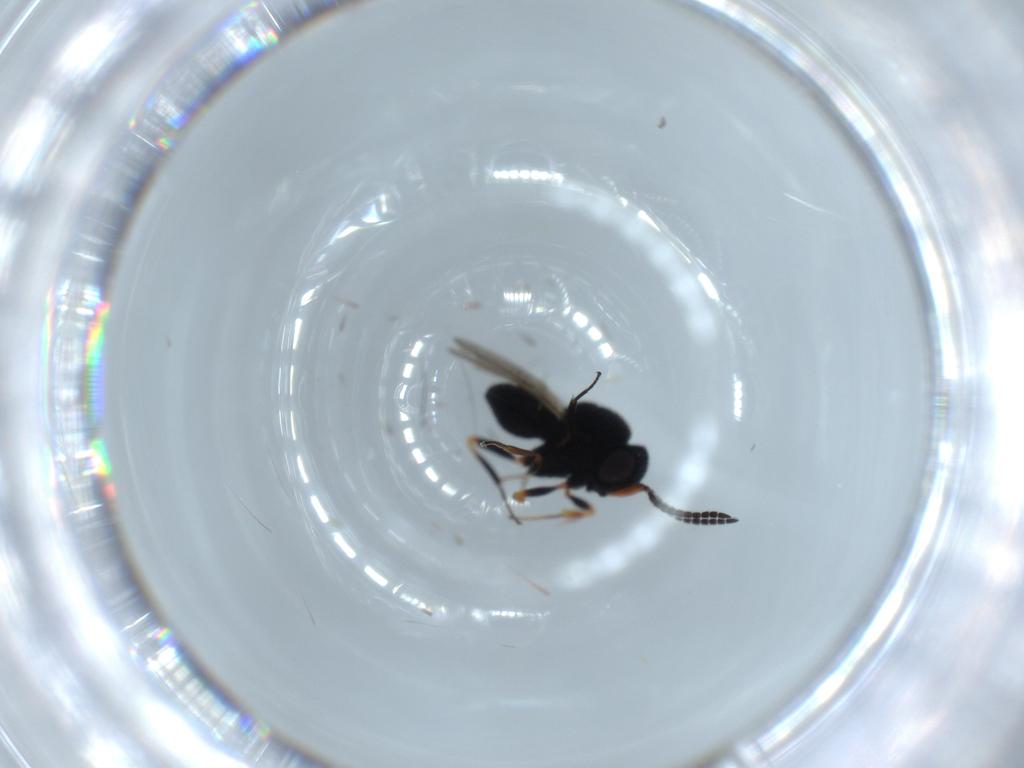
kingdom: Animalia
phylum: Arthropoda
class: Insecta
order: Hymenoptera
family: Scelionidae
